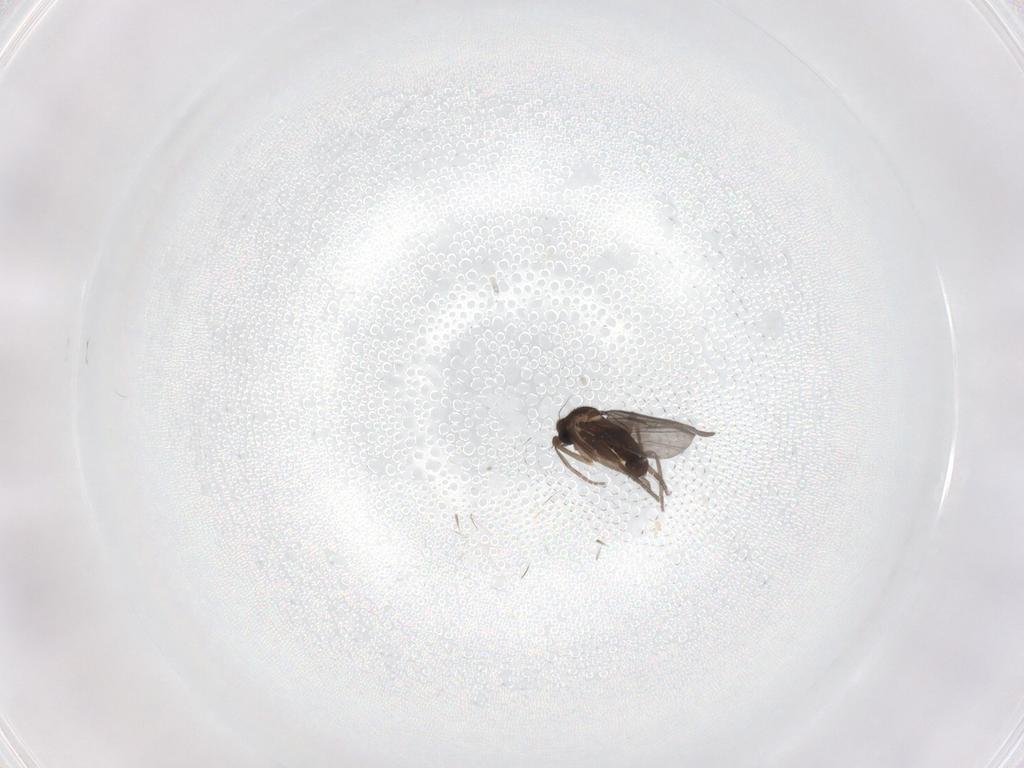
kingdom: Animalia
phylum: Arthropoda
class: Insecta
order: Diptera
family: Phoridae
